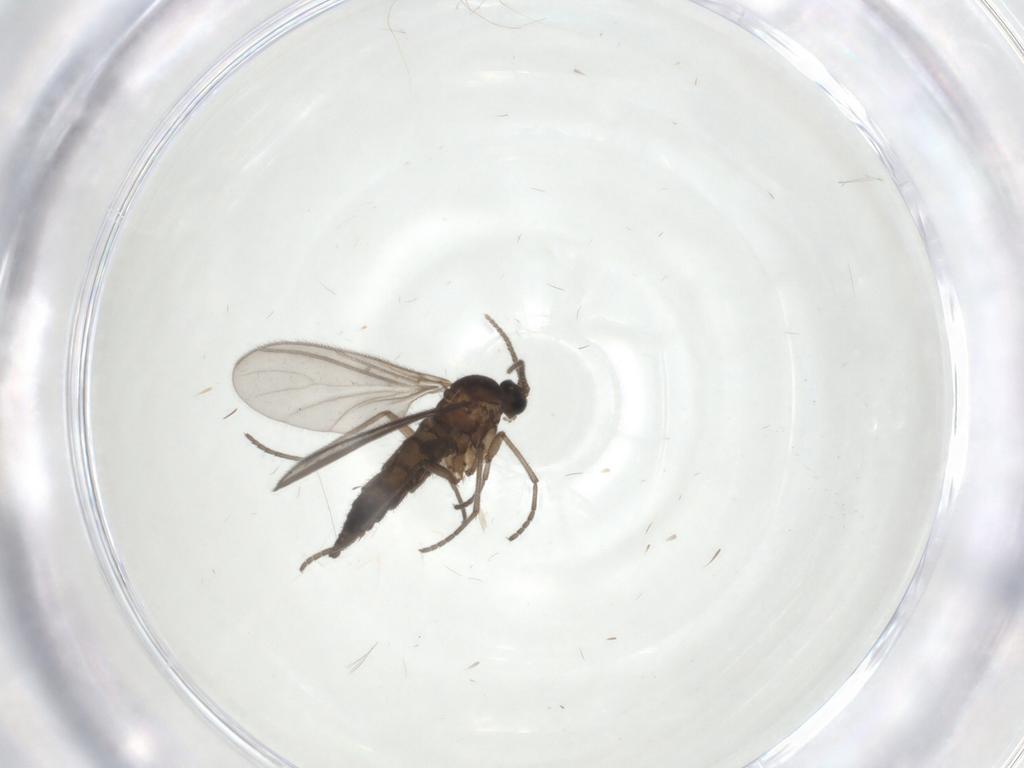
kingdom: Animalia
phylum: Arthropoda
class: Insecta
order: Diptera
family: Sciaridae
